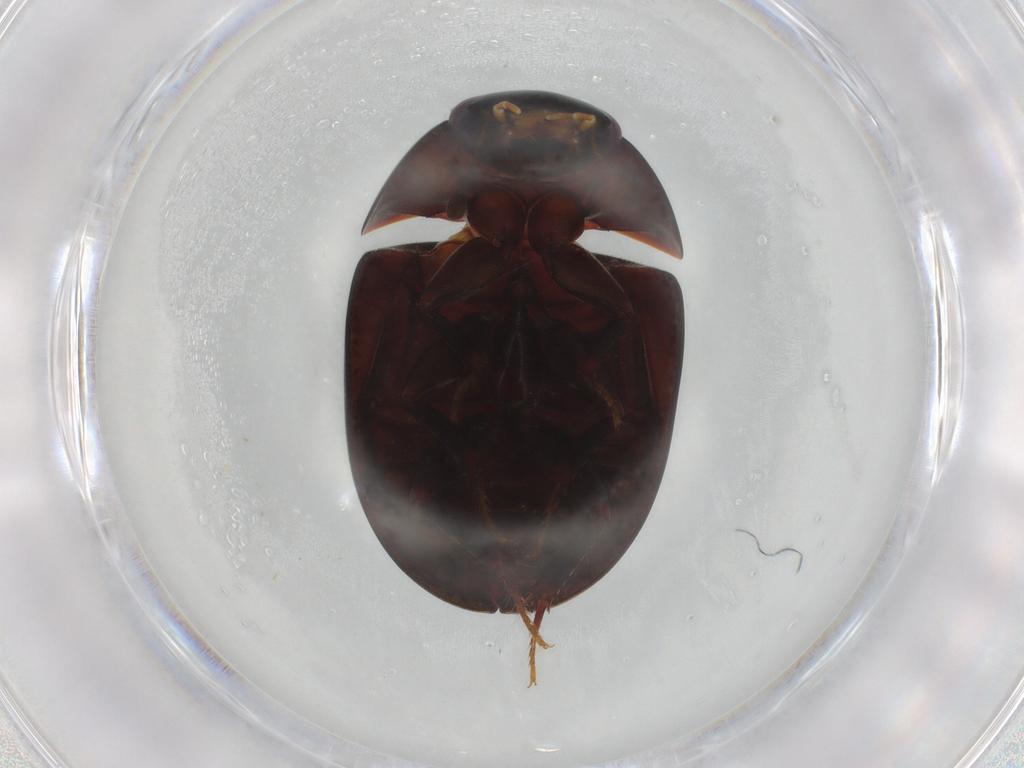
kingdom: Animalia
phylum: Arthropoda
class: Insecta
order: Coleoptera
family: Hydrophilidae
